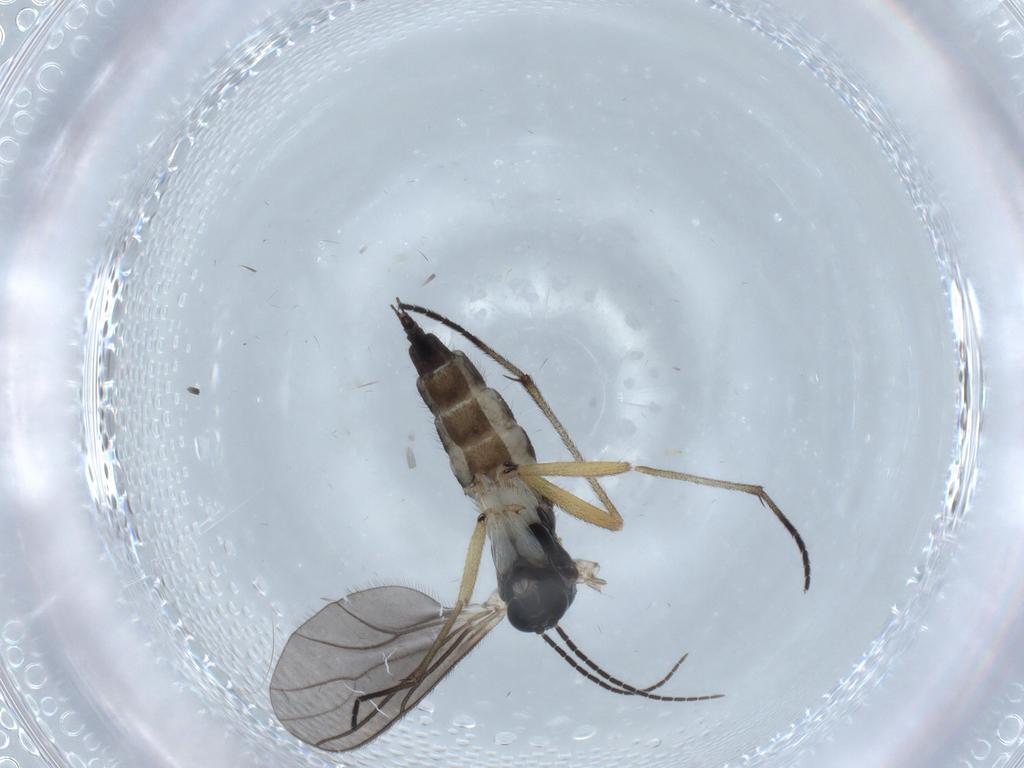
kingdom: Animalia
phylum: Arthropoda
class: Insecta
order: Diptera
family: Sciaridae
